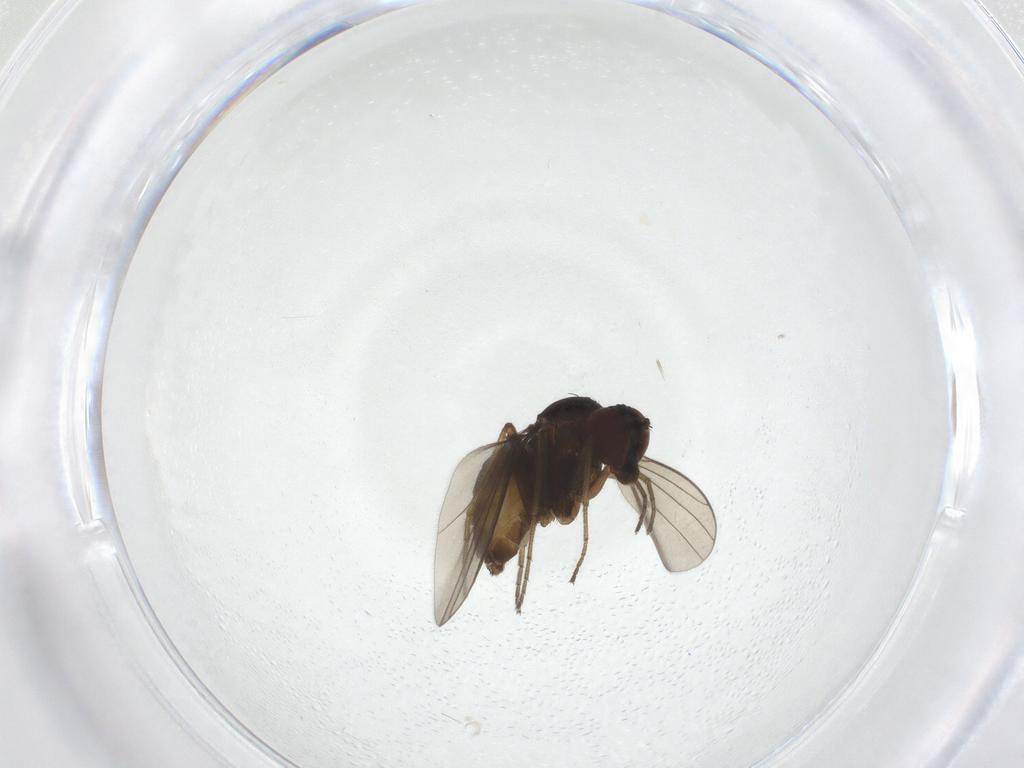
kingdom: Animalia
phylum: Arthropoda
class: Insecta
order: Diptera
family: Dolichopodidae
